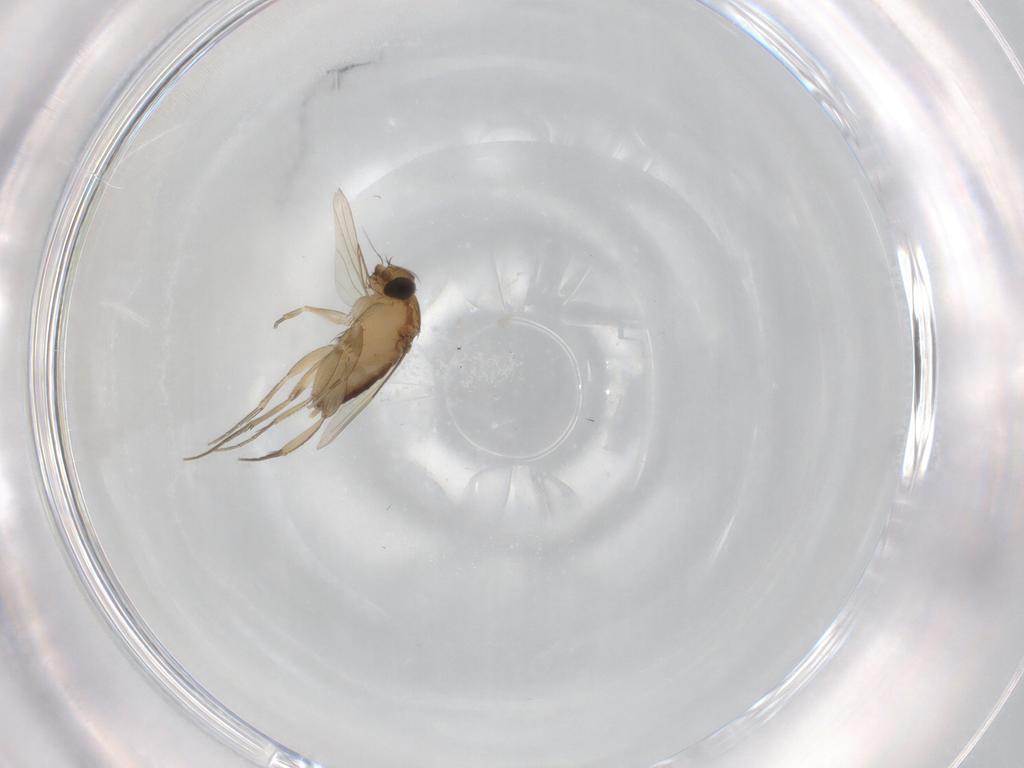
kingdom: Animalia
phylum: Arthropoda
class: Insecta
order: Diptera
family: Phoridae
